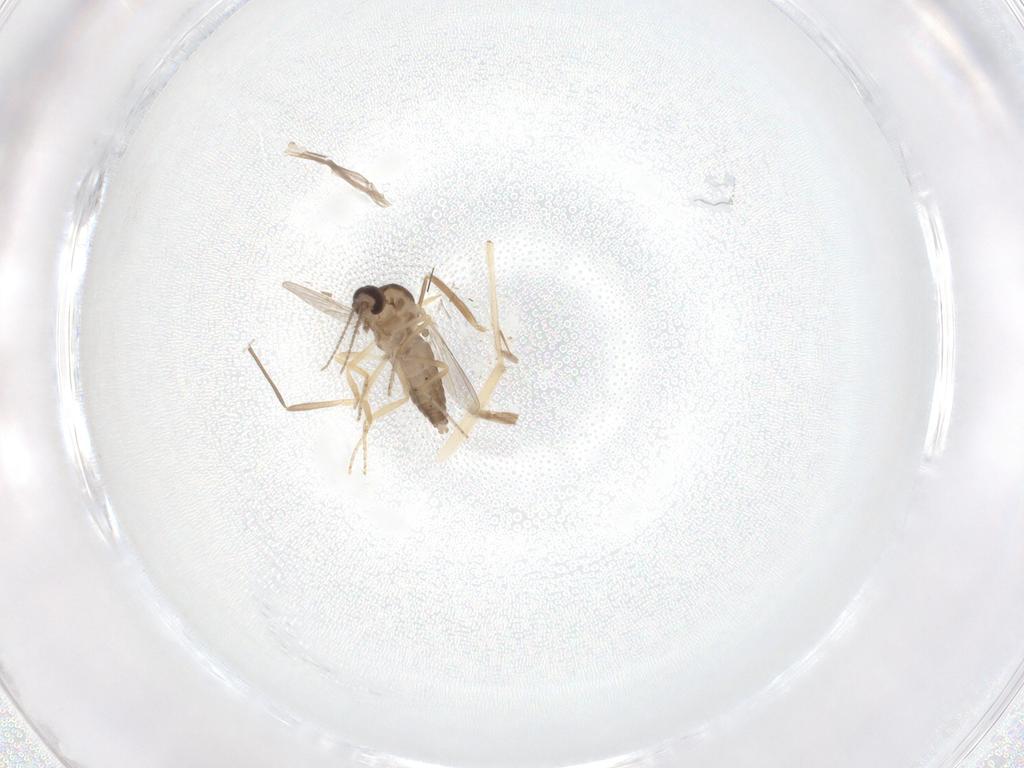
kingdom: Animalia
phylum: Arthropoda
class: Insecta
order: Diptera
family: Ceratopogonidae
